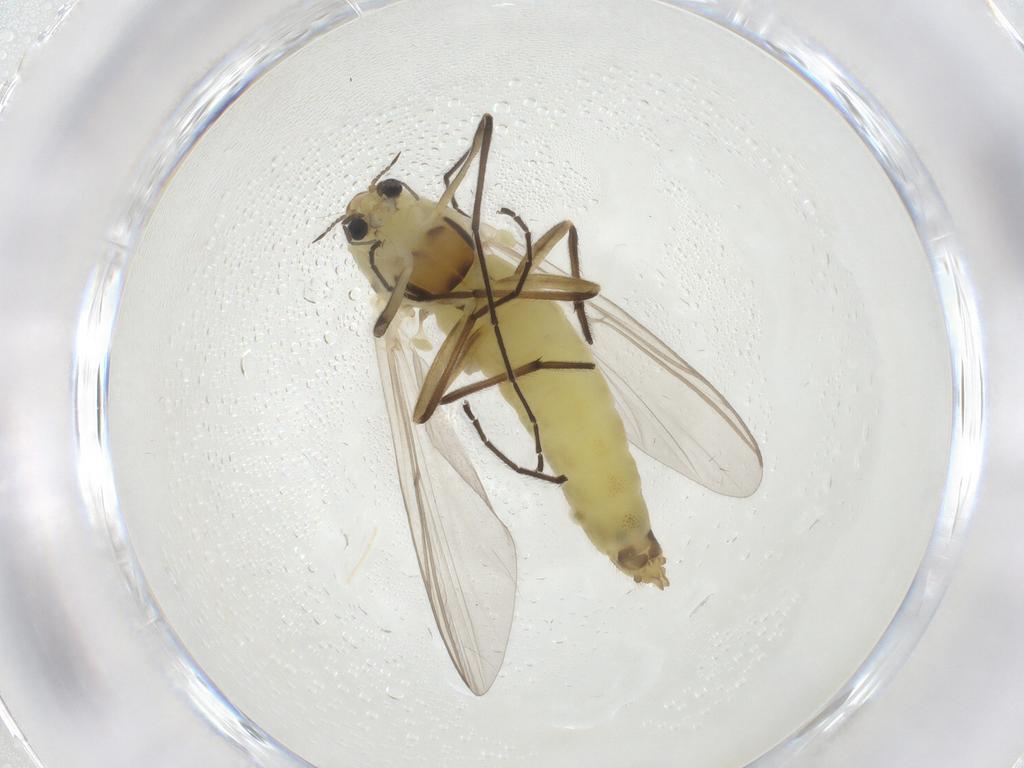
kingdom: Animalia
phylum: Arthropoda
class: Insecta
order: Diptera
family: Chironomidae
